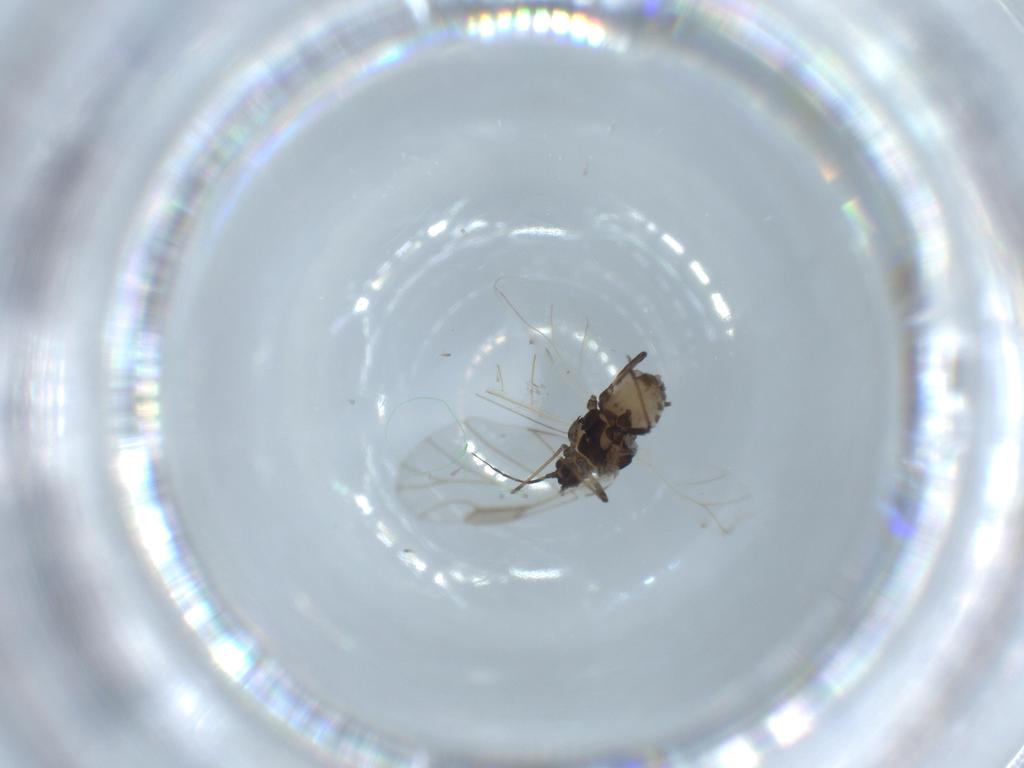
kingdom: Animalia
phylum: Arthropoda
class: Insecta
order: Hemiptera
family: Aphididae
